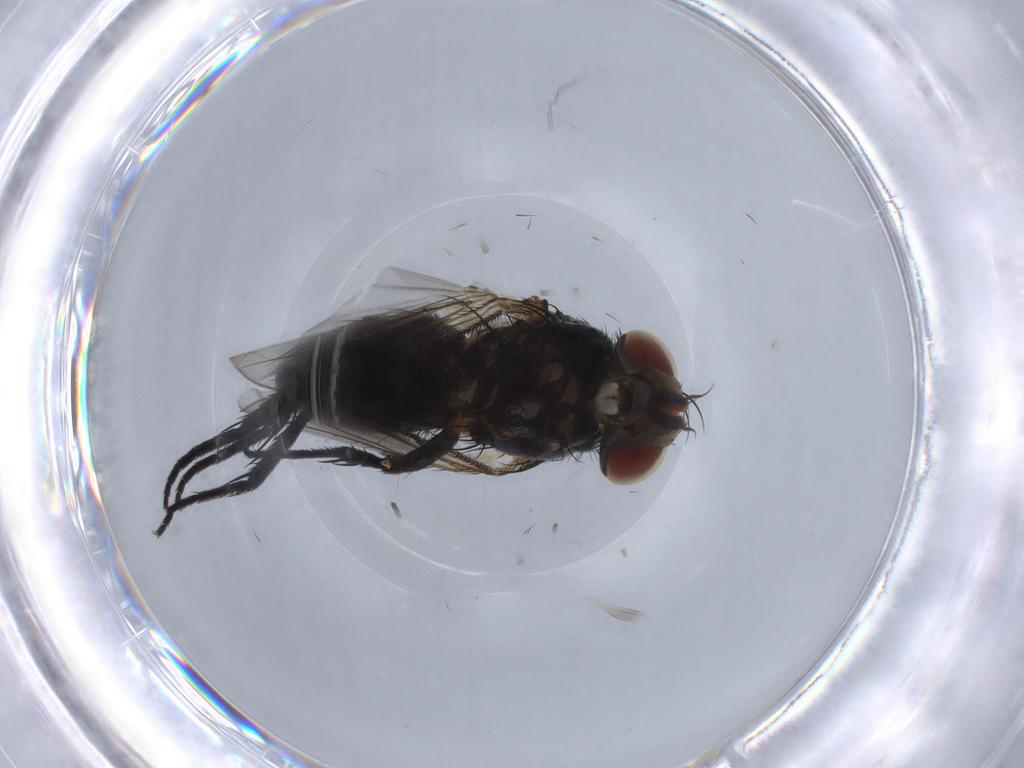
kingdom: Animalia
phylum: Arthropoda
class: Insecta
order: Diptera
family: Tachinidae
